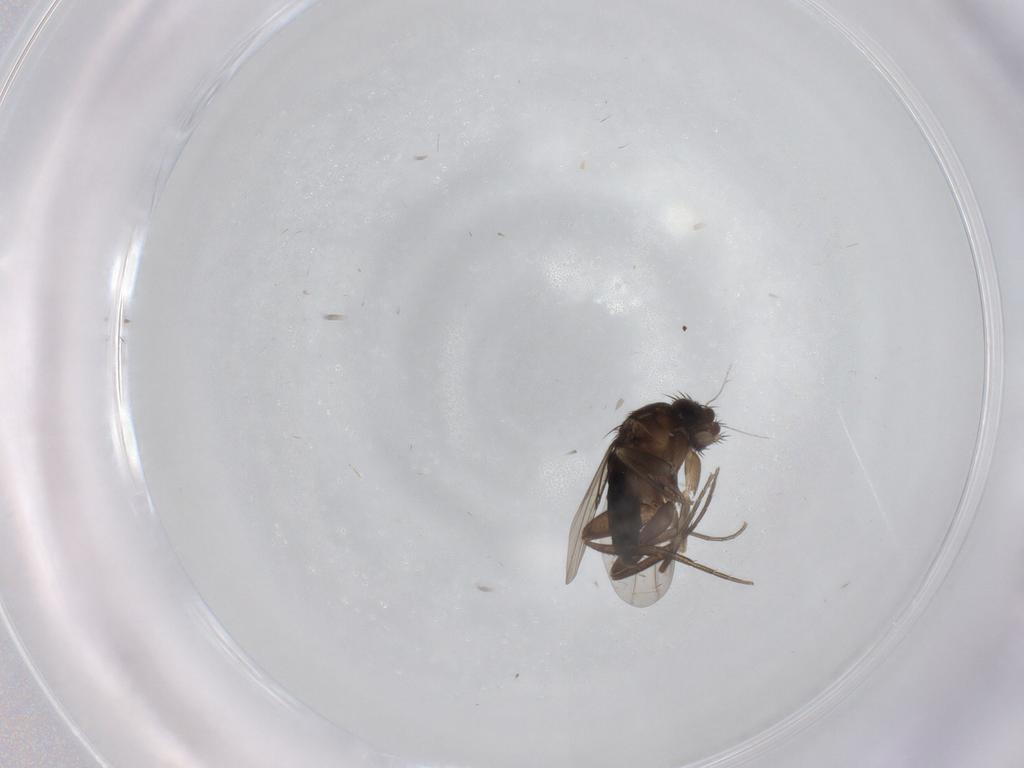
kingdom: Animalia
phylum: Arthropoda
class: Insecta
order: Diptera
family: Phoridae
